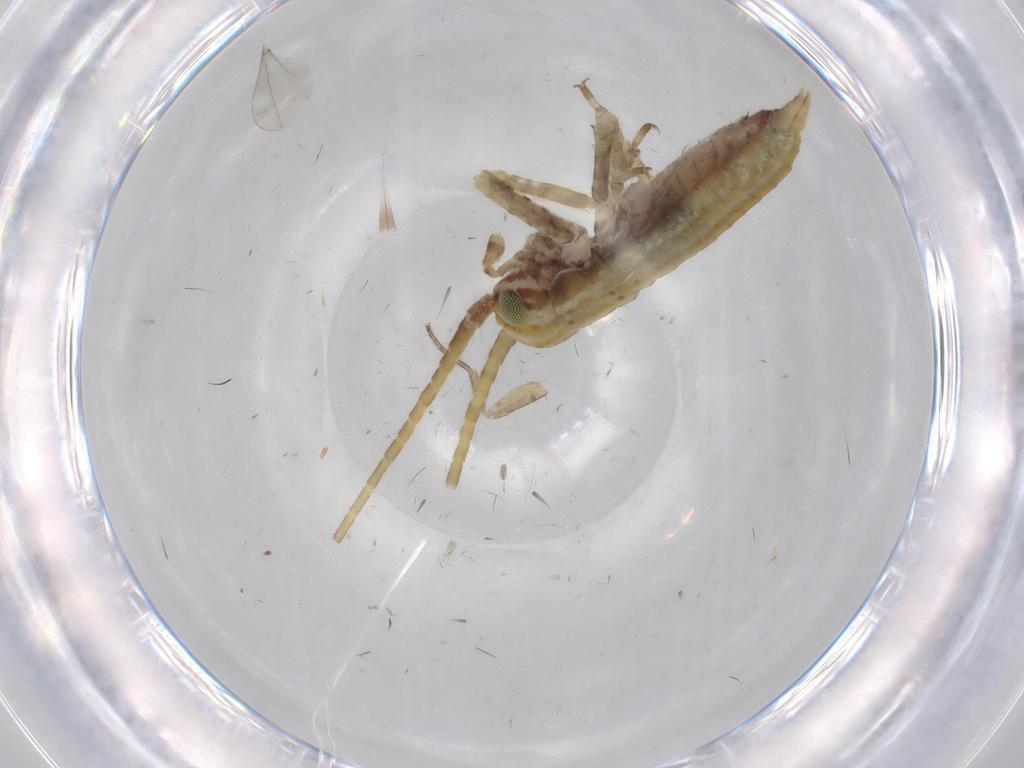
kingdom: Animalia
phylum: Arthropoda
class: Insecta
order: Orthoptera
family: Gryllidae
